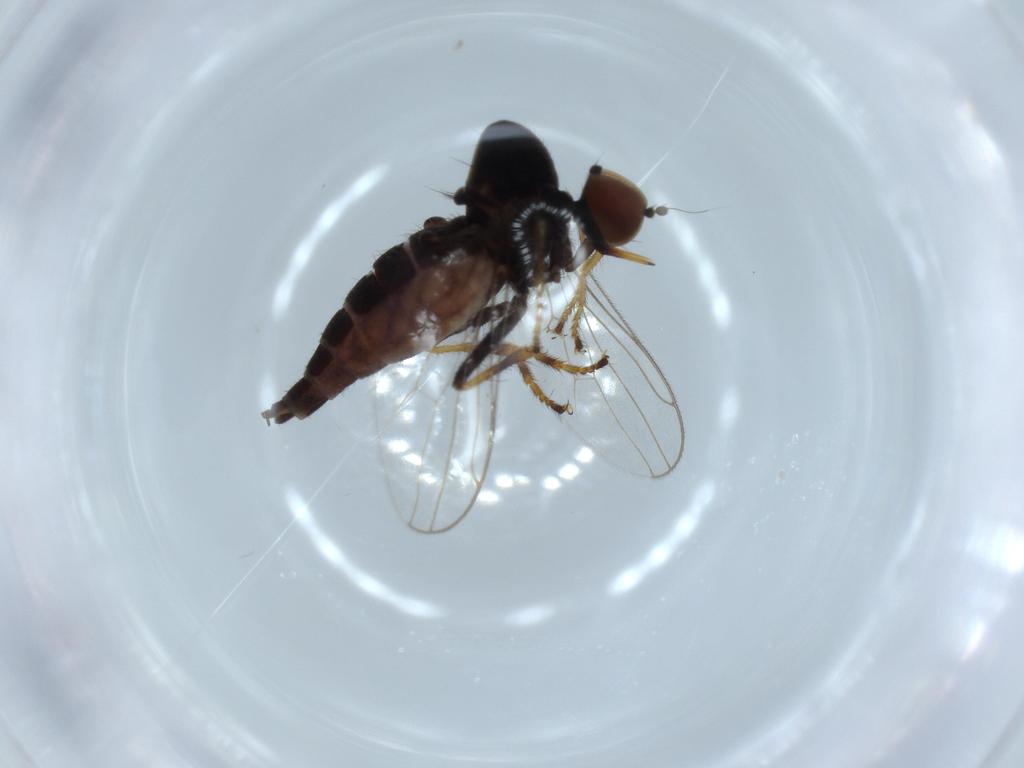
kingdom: Animalia
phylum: Arthropoda
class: Insecta
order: Diptera
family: Hybotidae
